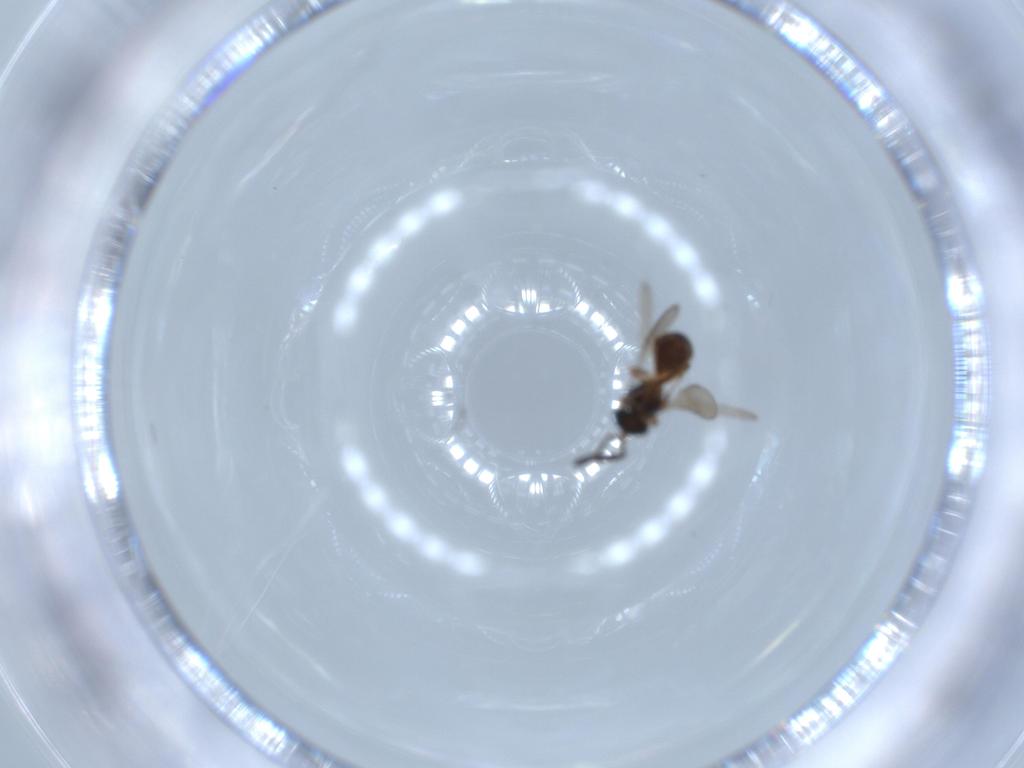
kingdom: Animalia
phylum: Arthropoda
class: Insecta
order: Hymenoptera
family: Scelionidae
